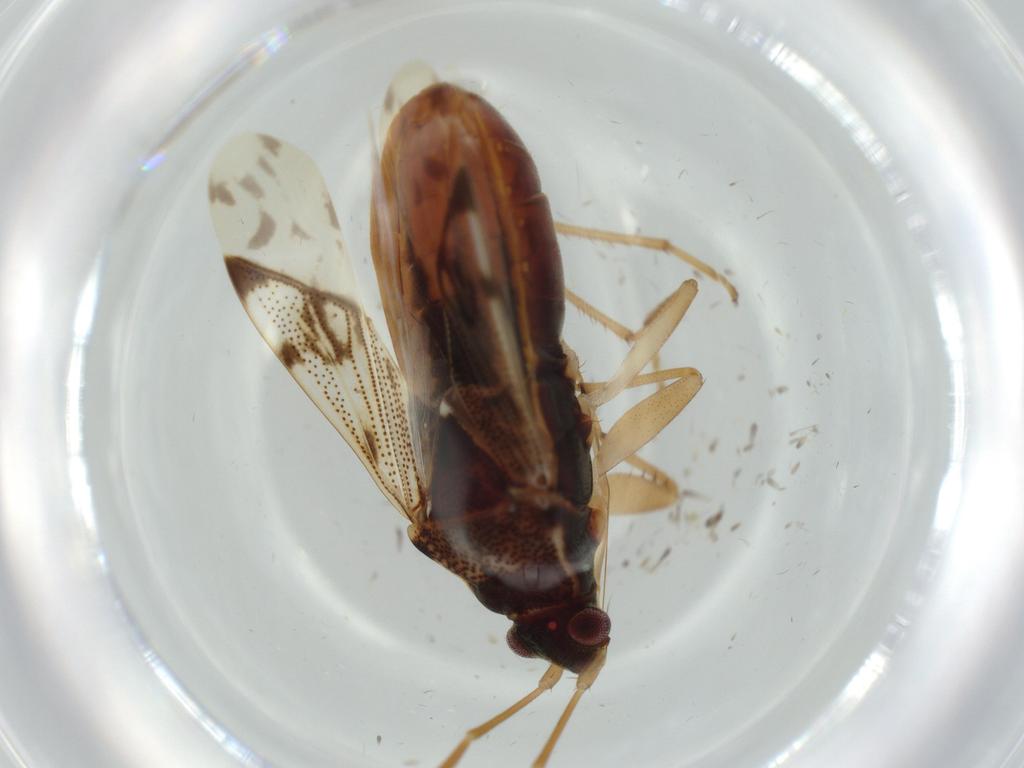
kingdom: Animalia
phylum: Arthropoda
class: Insecta
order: Hemiptera
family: Rhyparochromidae
